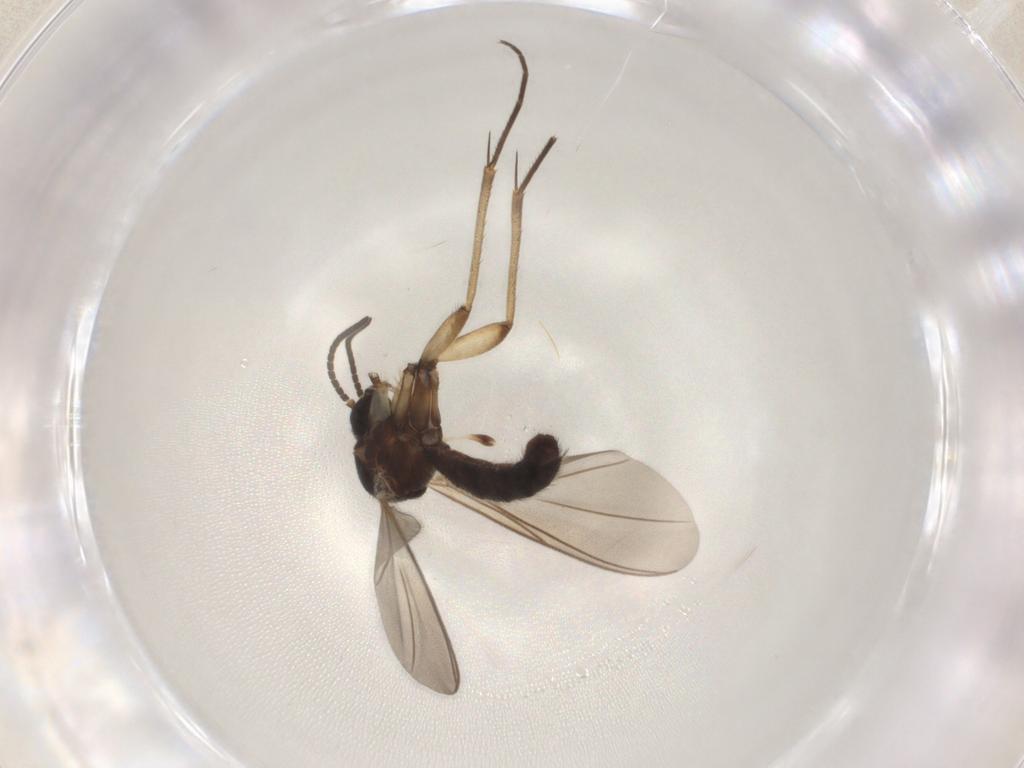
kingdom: Animalia
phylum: Arthropoda
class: Insecta
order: Diptera
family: Mycetophilidae
